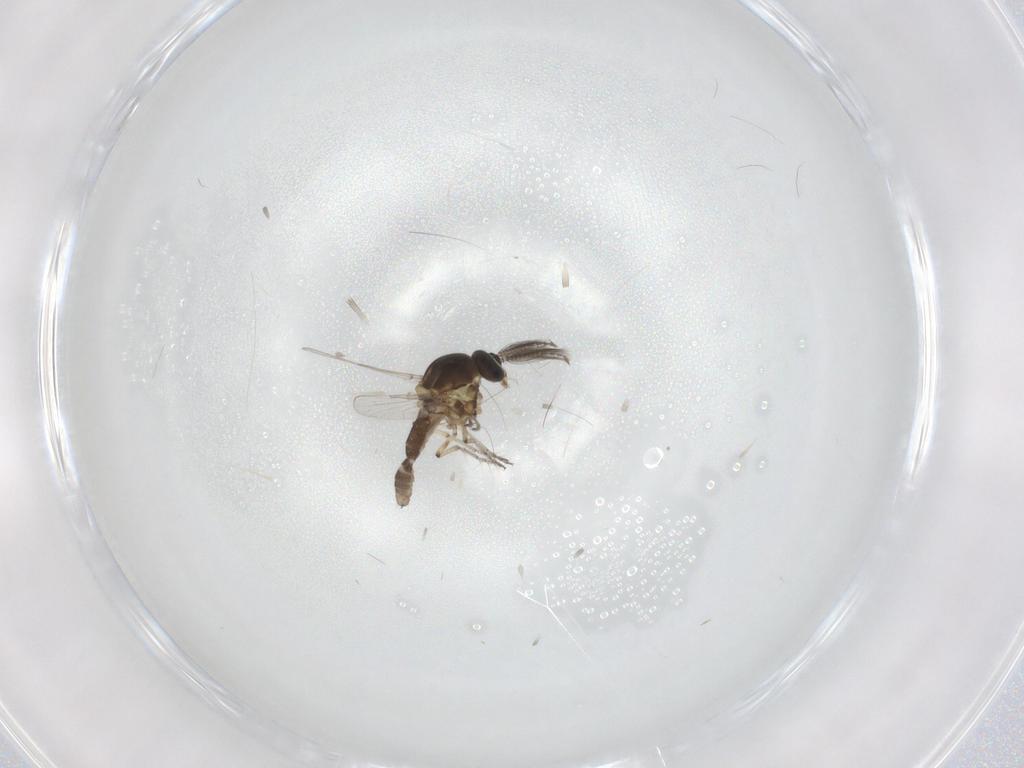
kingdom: Animalia
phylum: Arthropoda
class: Insecta
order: Diptera
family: Ceratopogonidae
